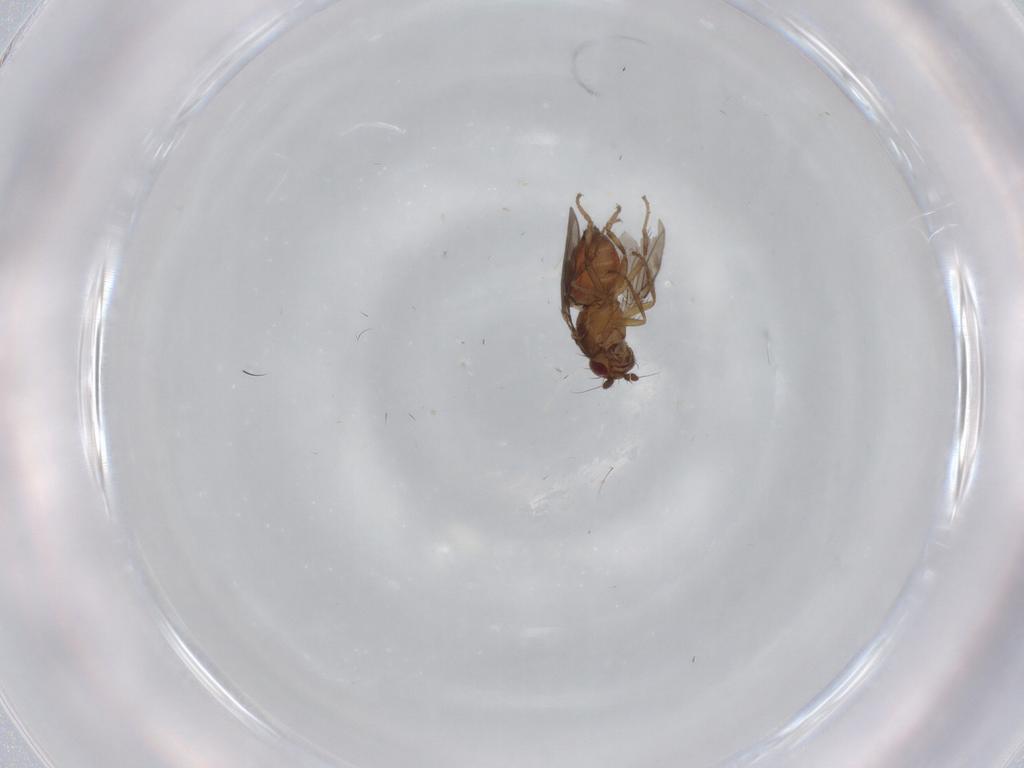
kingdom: Animalia
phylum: Arthropoda
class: Insecta
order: Diptera
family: Sphaeroceridae
